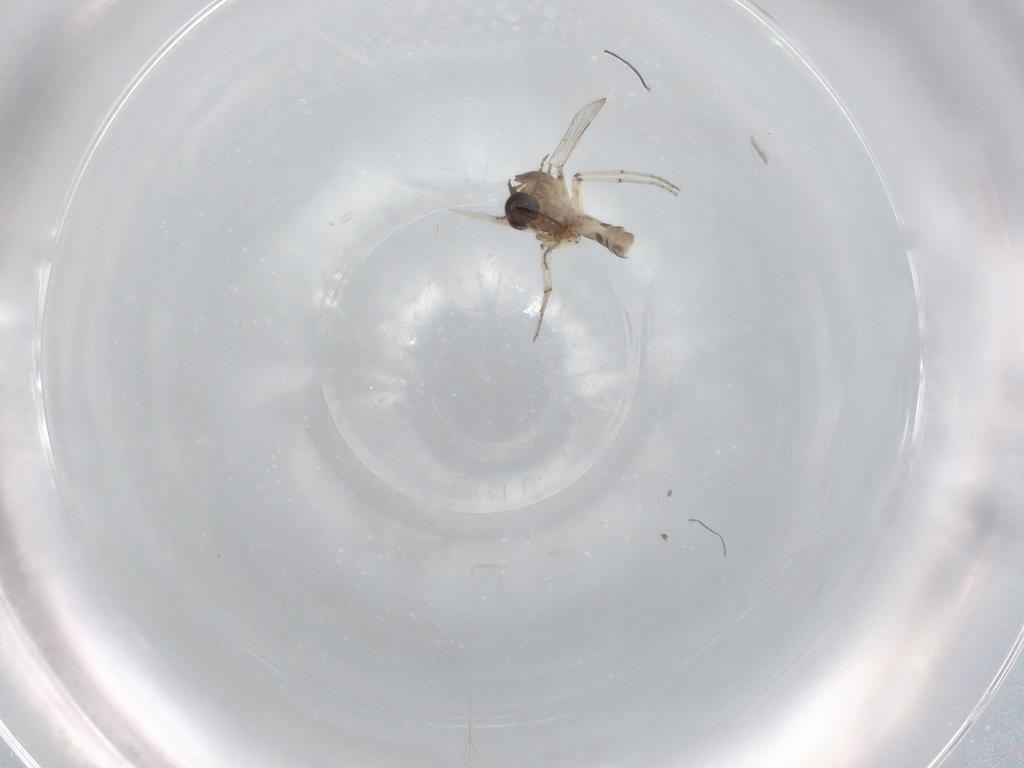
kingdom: Animalia
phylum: Arthropoda
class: Insecta
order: Diptera
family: Ceratopogonidae
